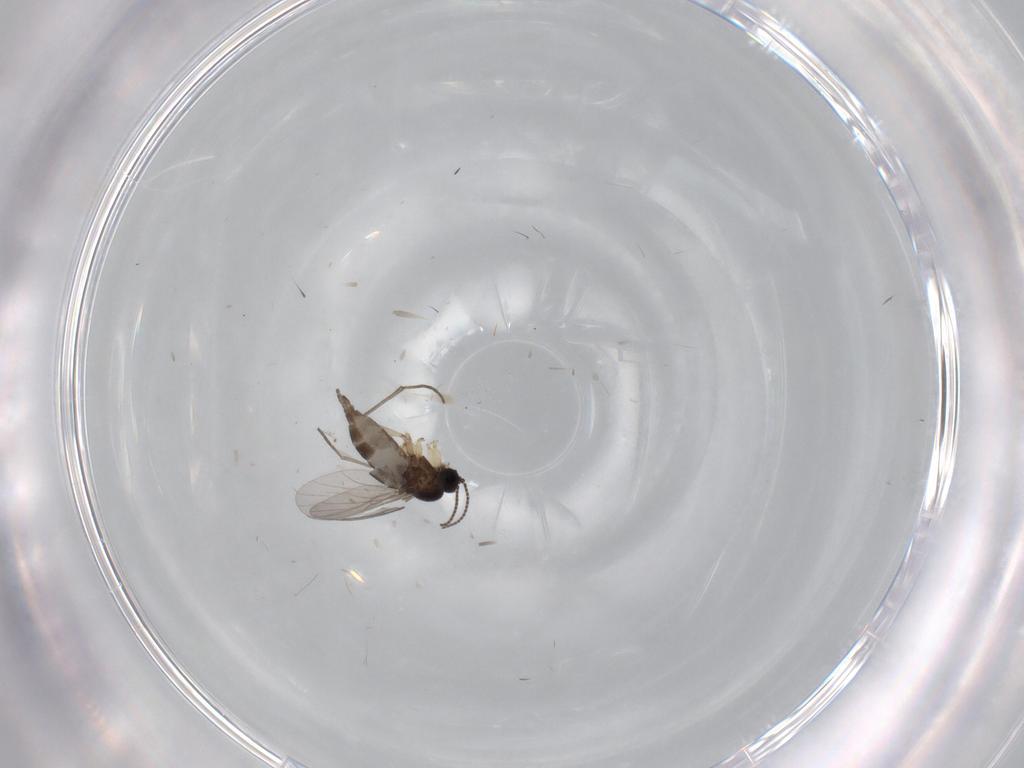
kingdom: Animalia
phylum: Arthropoda
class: Insecta
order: Diptera
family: Sciaridae
